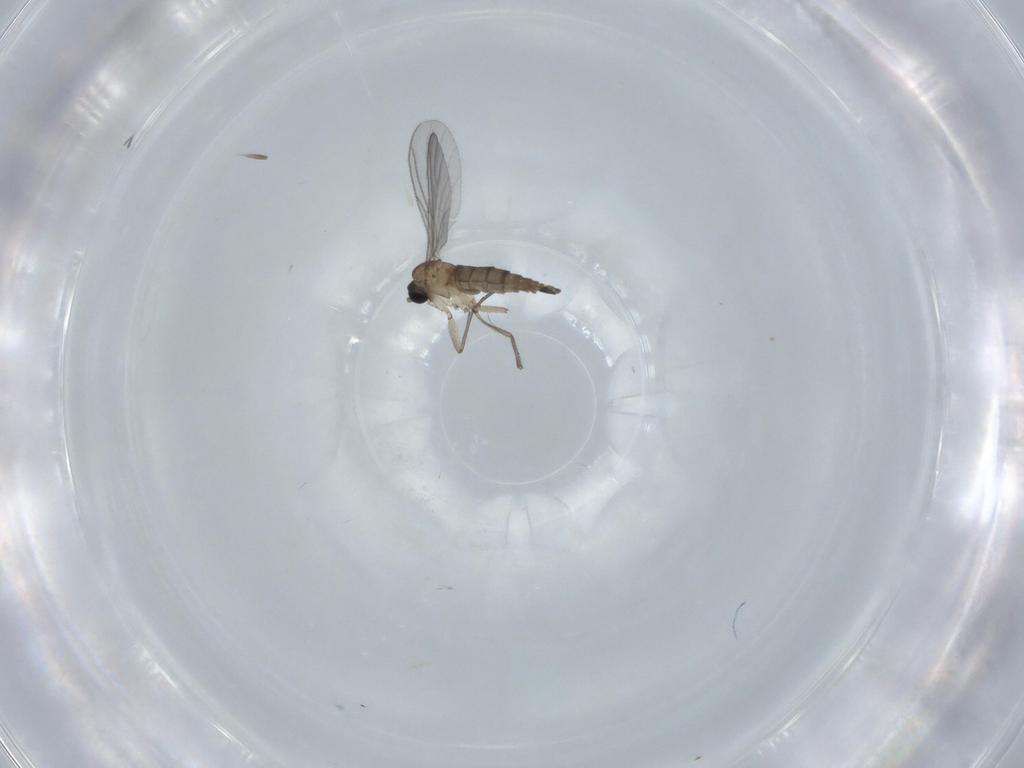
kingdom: Animalia
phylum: Arthropoda
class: Insecta
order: Diptera
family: Sciaridae
